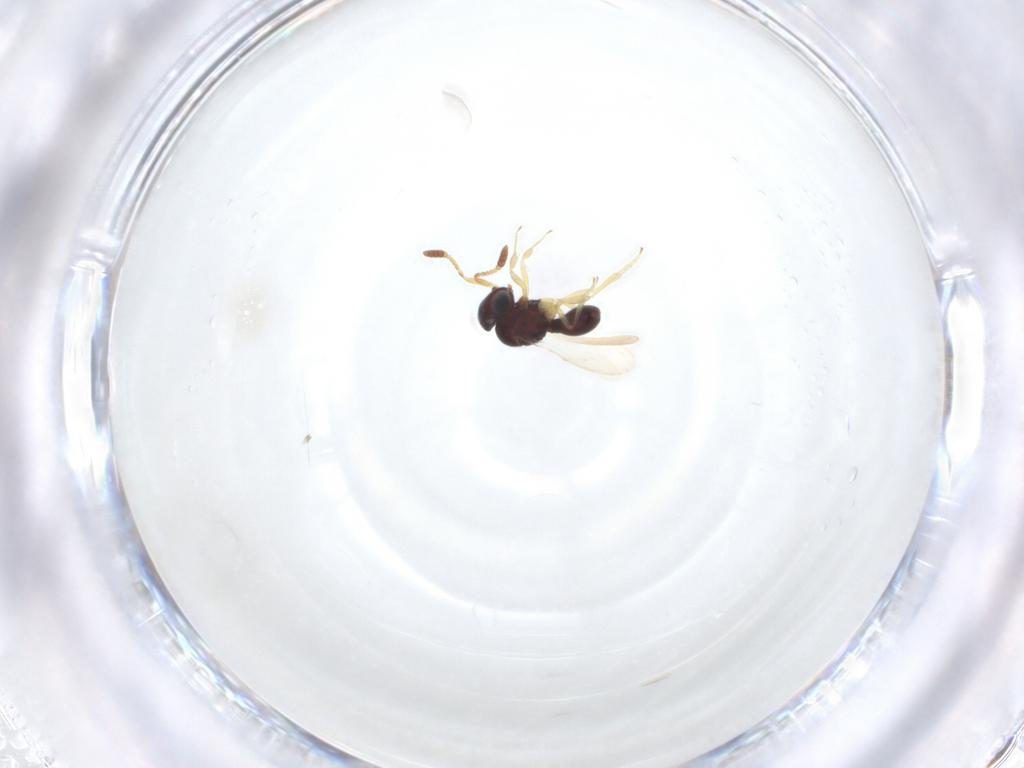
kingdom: Animalia
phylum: Arthropoda
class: Insecta
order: Hymenoptera
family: Scelionidae
